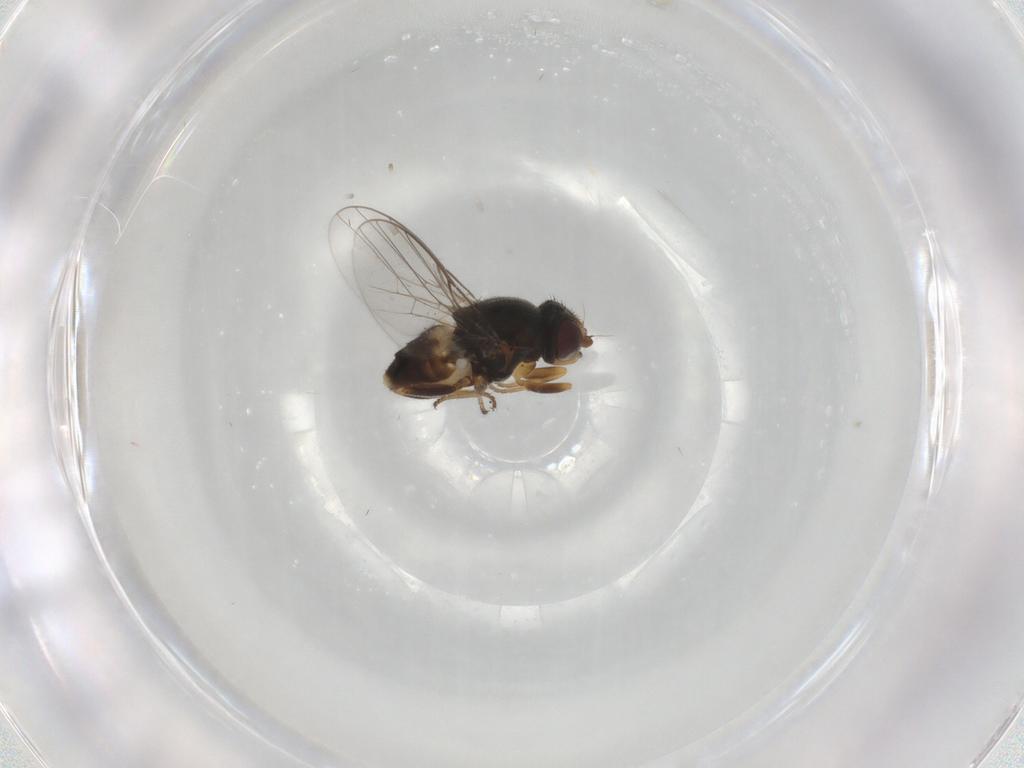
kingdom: Animalia
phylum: Arthropoda
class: Insecta
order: Diptera
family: Chloropidae
